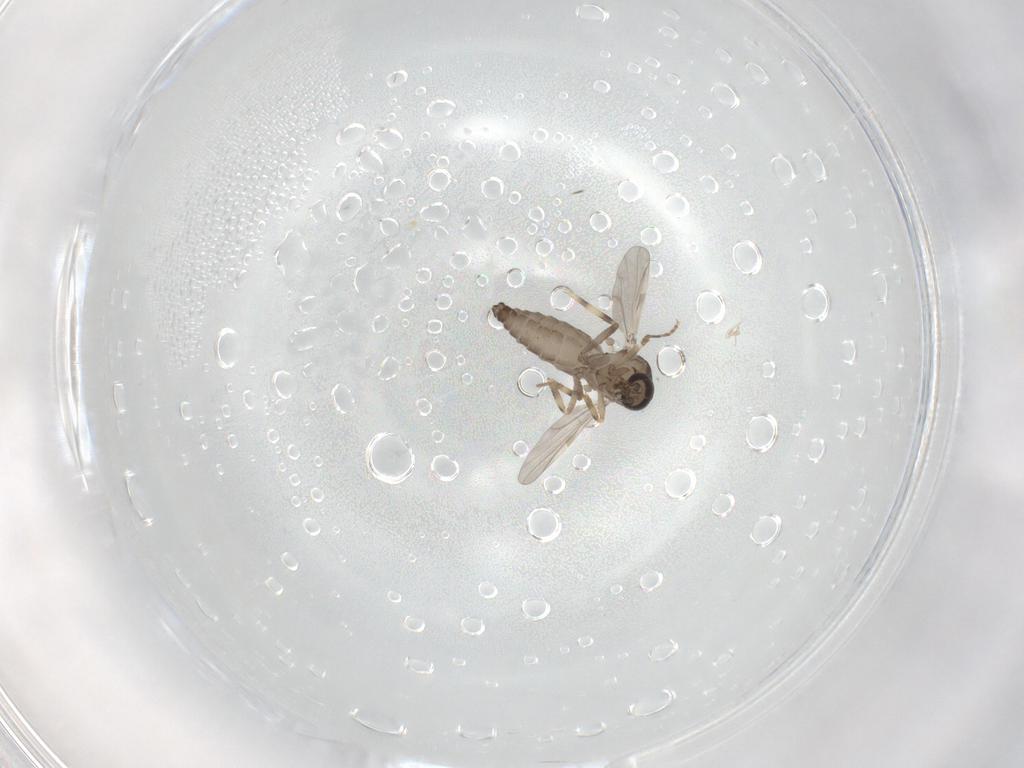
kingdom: Animalia
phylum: Arthropoda
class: Insecta
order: Diptera
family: Ceratopogonidae
